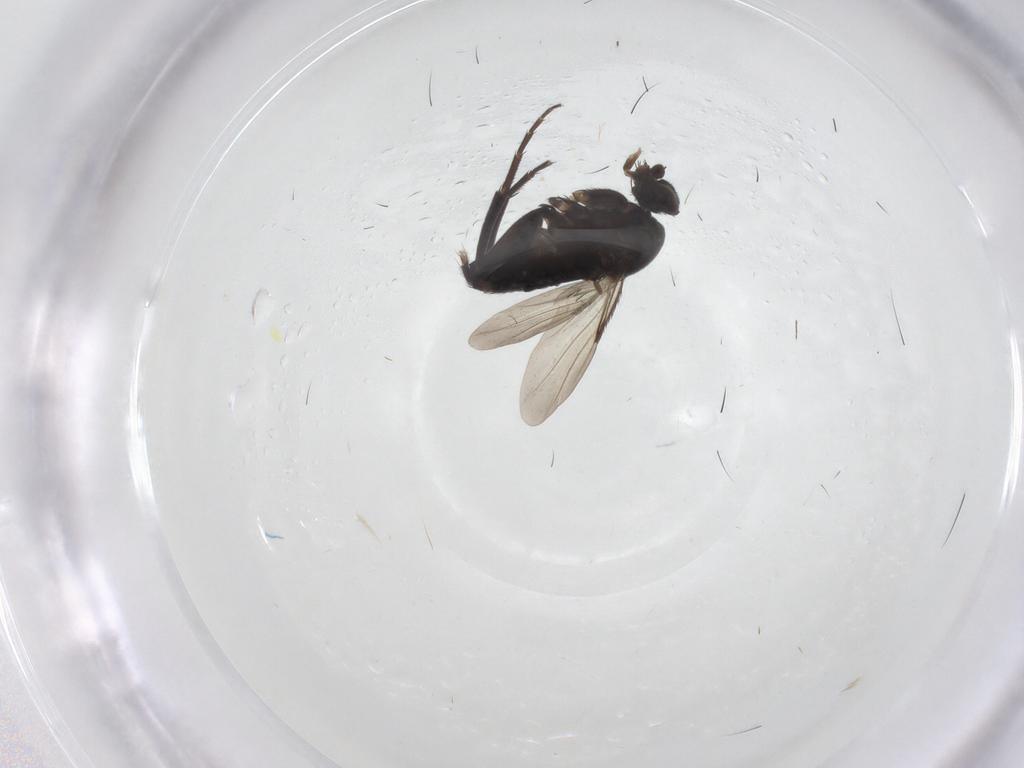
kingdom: Animalia
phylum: Arthropoda
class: Insecta
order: Diptera
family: Phoridae
